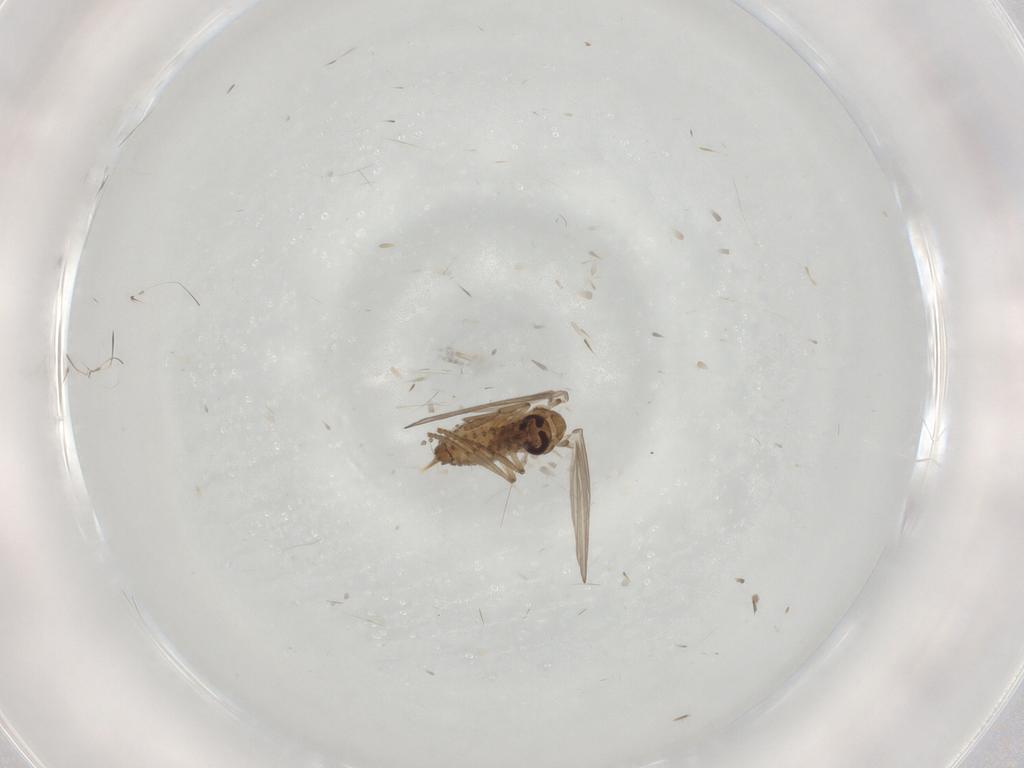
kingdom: Animalia
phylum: Arthropoda
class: Insecta
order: Diptera
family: Psychodidae
